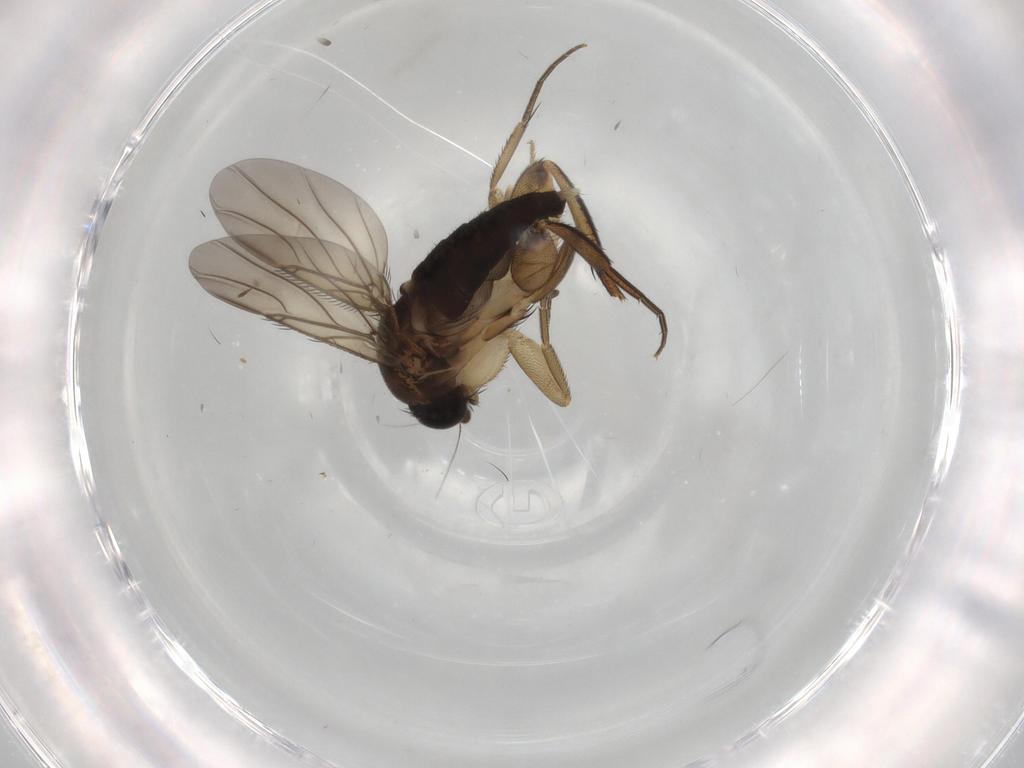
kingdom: Animalia
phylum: Arthropoda
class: Insecta
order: Diptera
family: Phoridae
